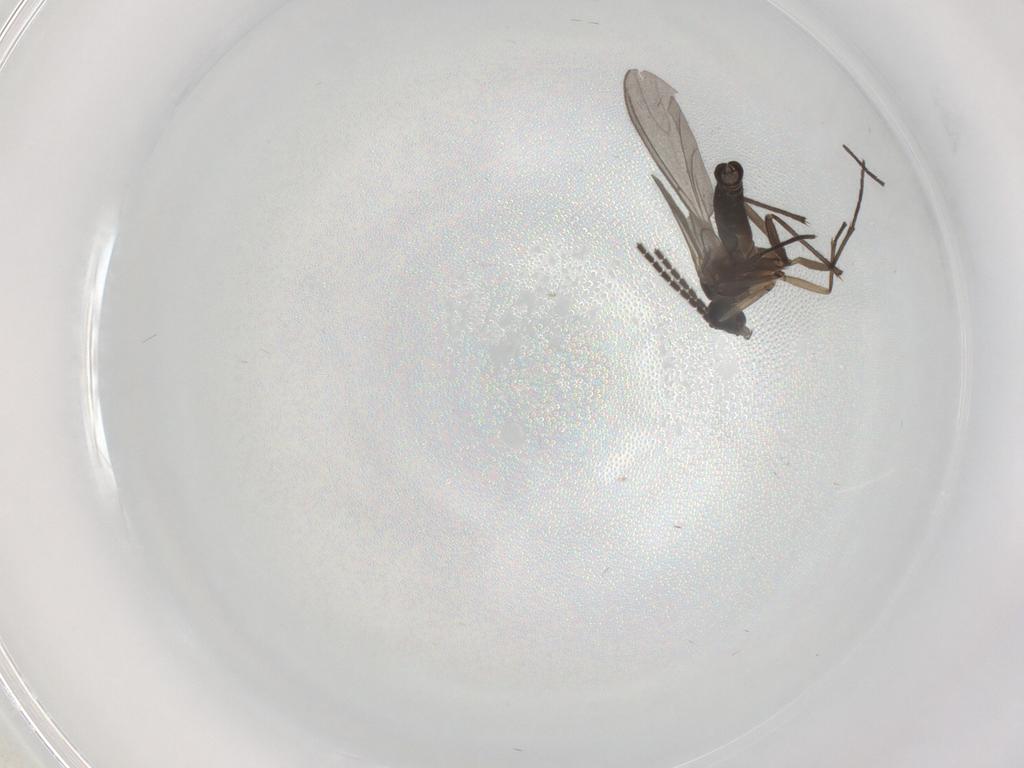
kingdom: Animalia
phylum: Arthropoda
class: Insecta
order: Diptera
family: Sciaridae
